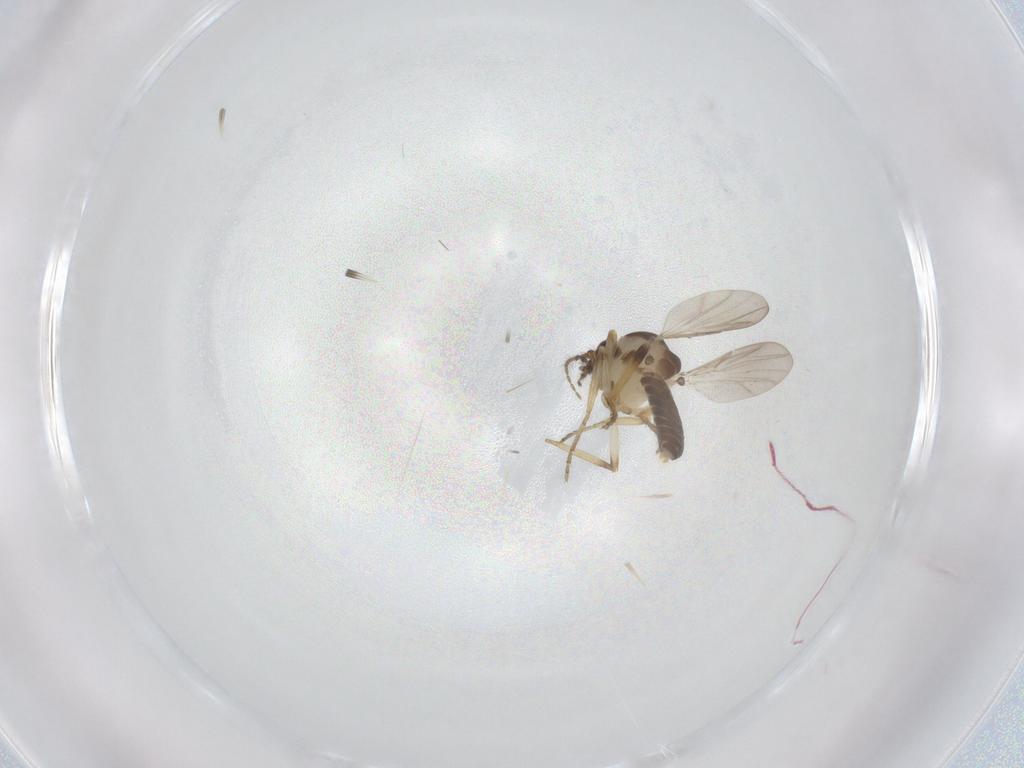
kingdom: Animalia
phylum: Arthropoda
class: Insecta
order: Diptera
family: Ceratopogonidae
